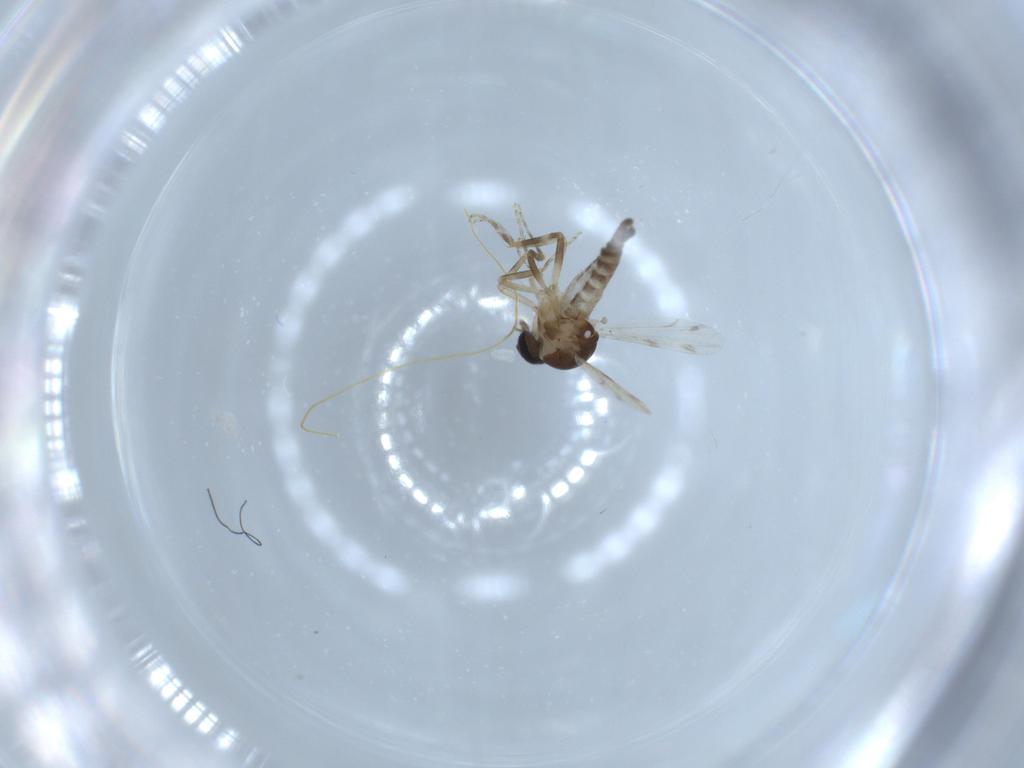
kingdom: Animalia
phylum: Arthropoda
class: Insecta
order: Diptera
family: Ceratopogonidae
